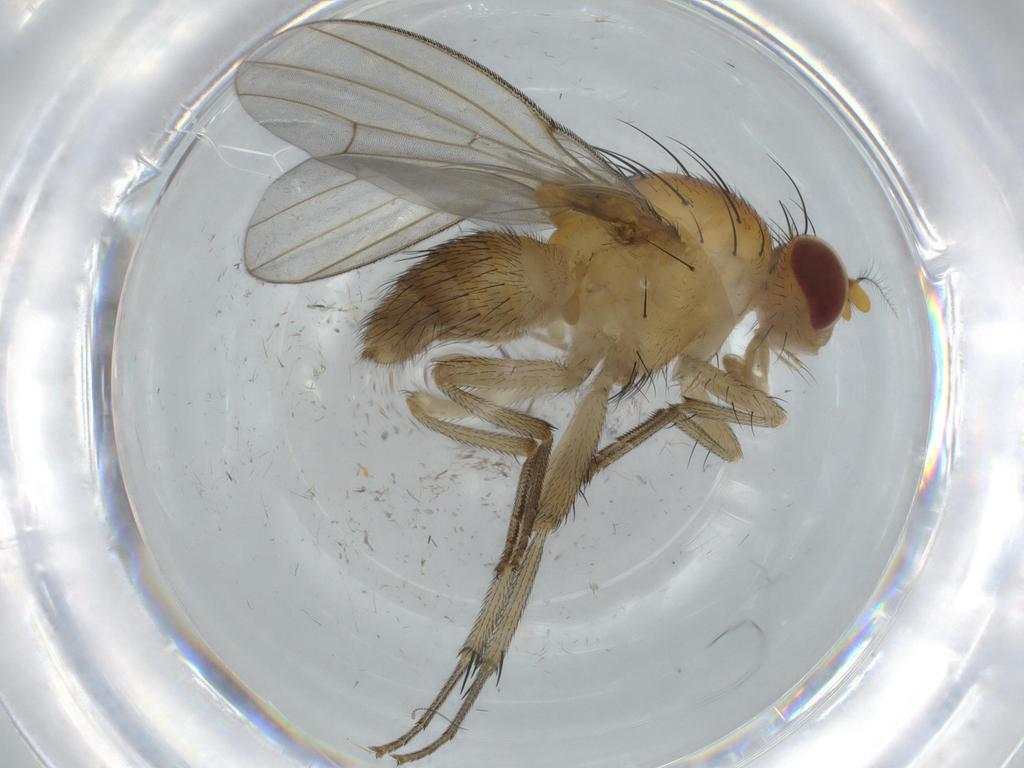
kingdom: Animalia
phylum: Arthropoda
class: Insecta
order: Diptera
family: Chironomidae
